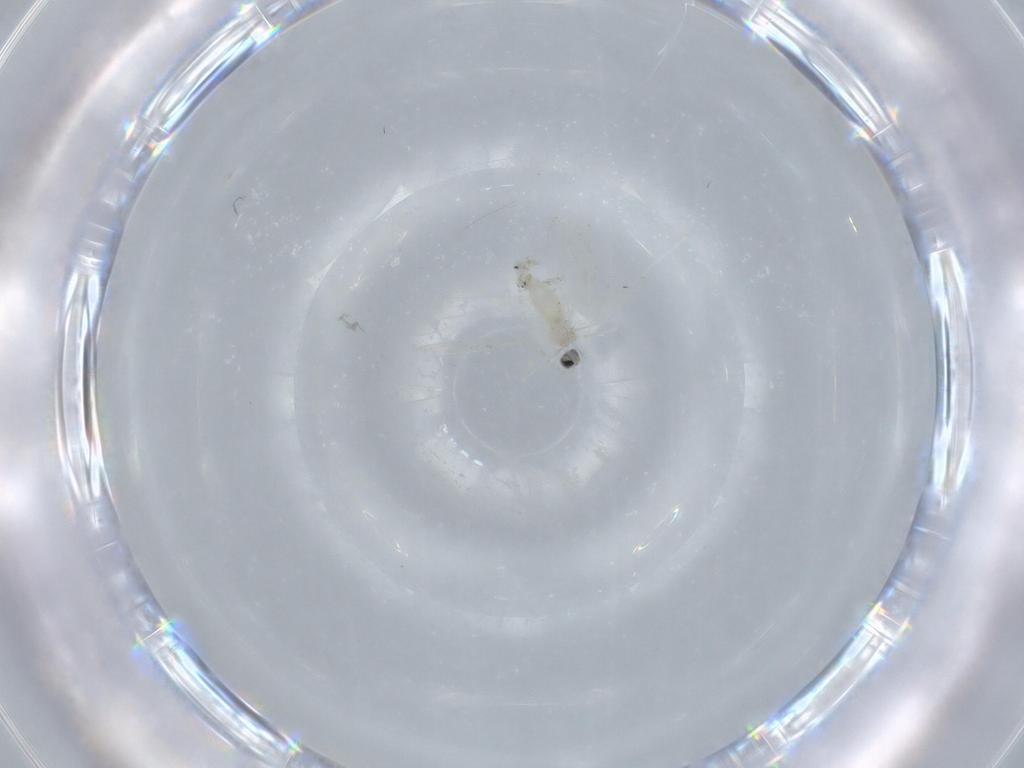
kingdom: Animalia
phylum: Arthropoda
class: Insecta
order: Diptera
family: Cecidomyiidae
